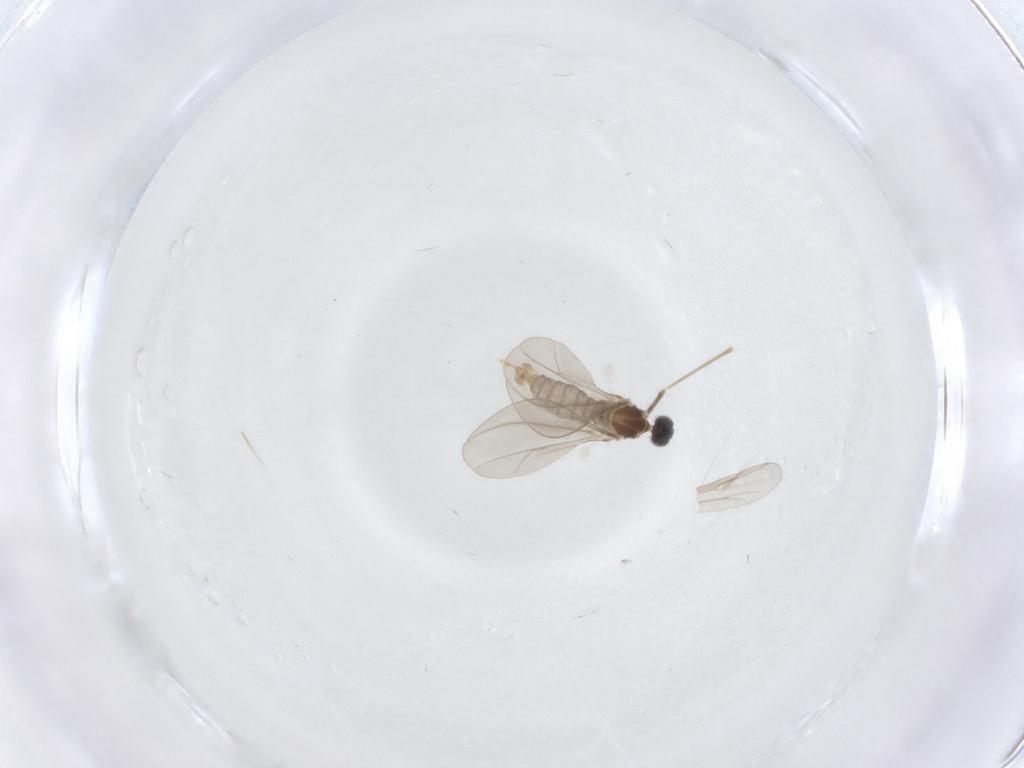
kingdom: Animalia
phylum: Arthropoda
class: Insecta
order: Diptera
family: Cecidomyiidae
